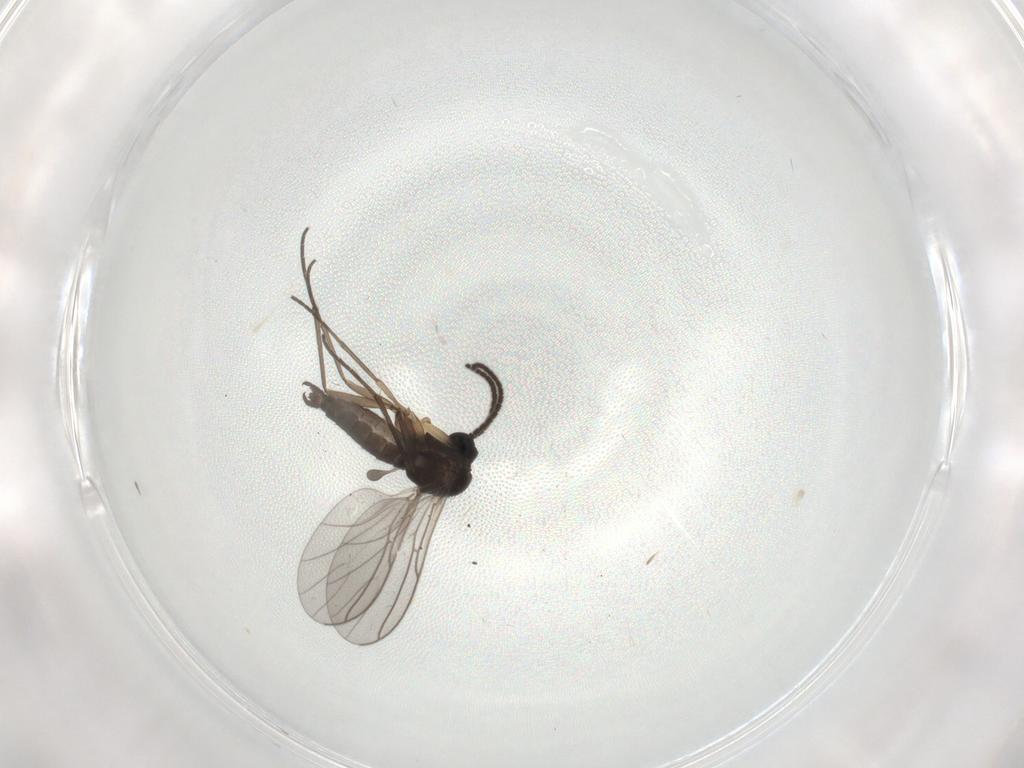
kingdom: Animalia
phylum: Arthropoda
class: Insecta
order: Diptera
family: Sciaridae
